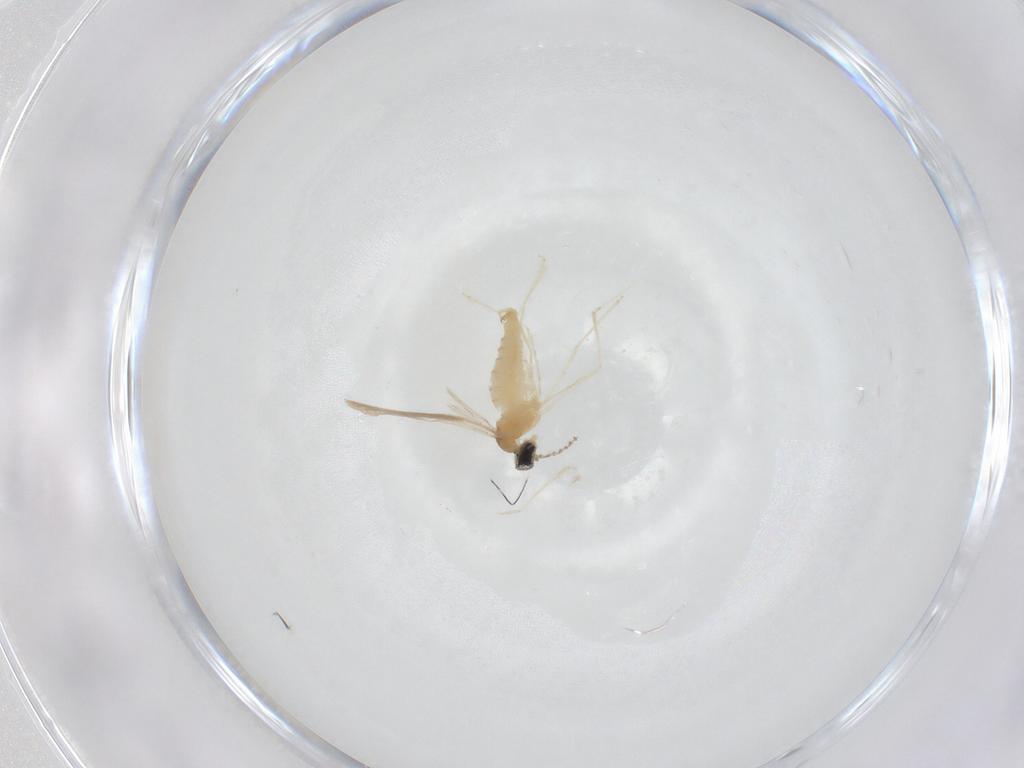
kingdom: Animalia
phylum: Arthropoda
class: Insecta
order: Diptera
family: Cecidomyiidae
